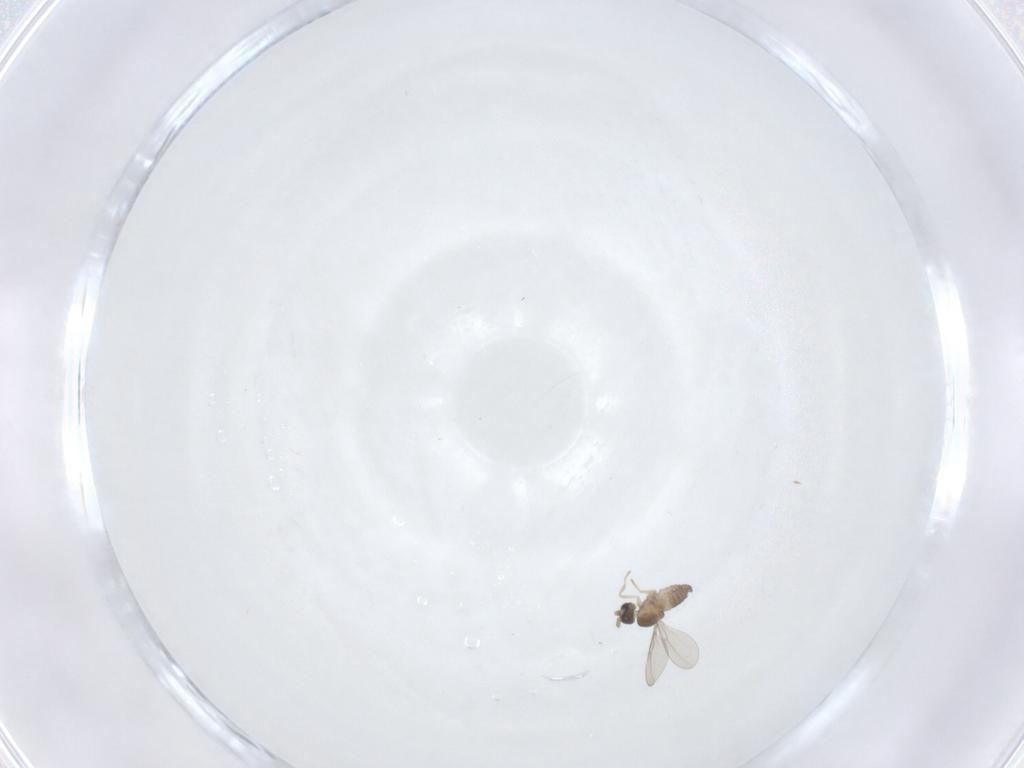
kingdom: Animalia
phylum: Arthropoda
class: Insecta
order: Diptera
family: Cecidomyiidae
